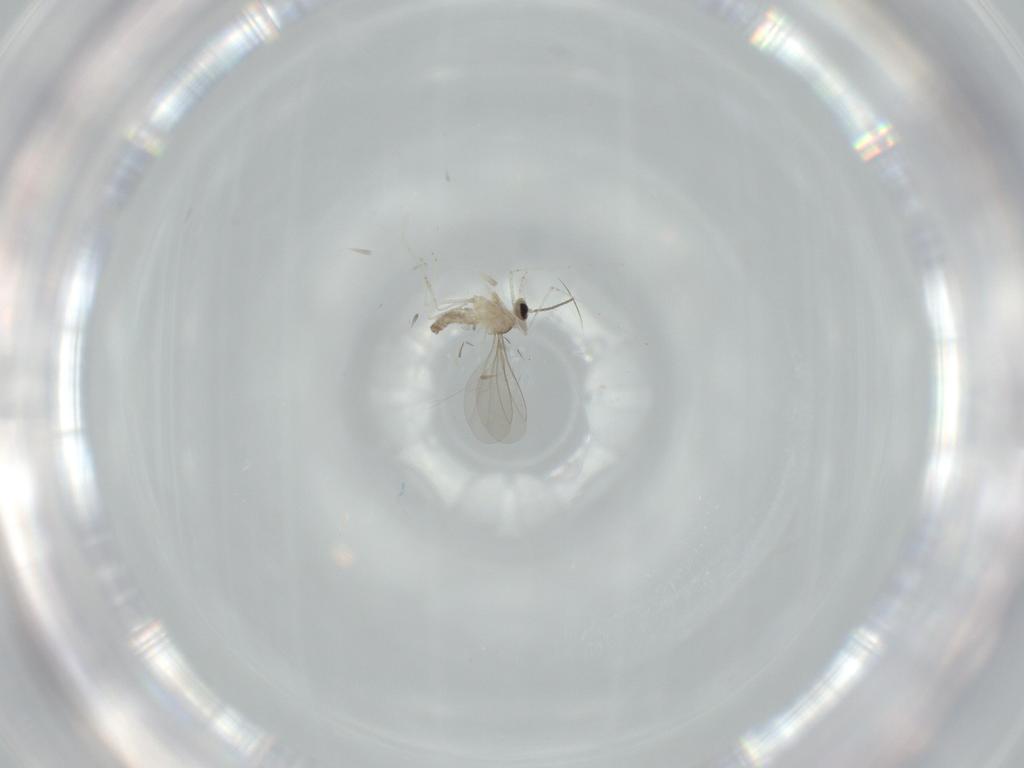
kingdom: Animalia
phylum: Arthropoda
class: Insecta
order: Diptera
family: Cecidomyiidae
